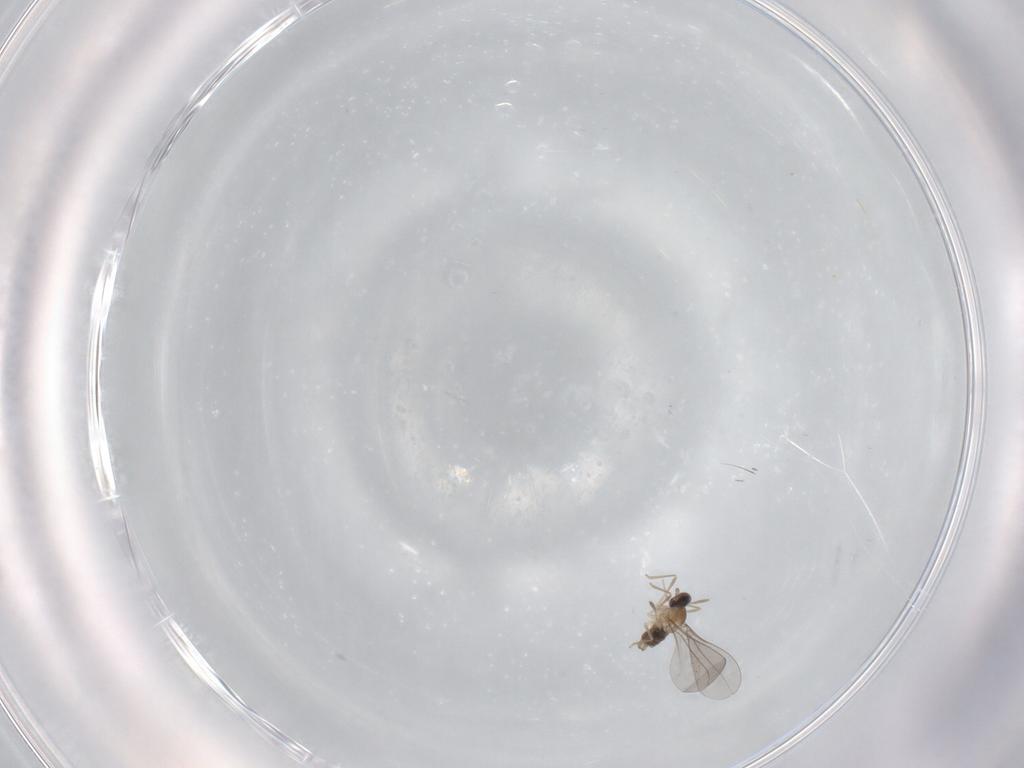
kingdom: Animalia
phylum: Arthropoda
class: Insecta
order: Diptera
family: Cecidomyiidae
